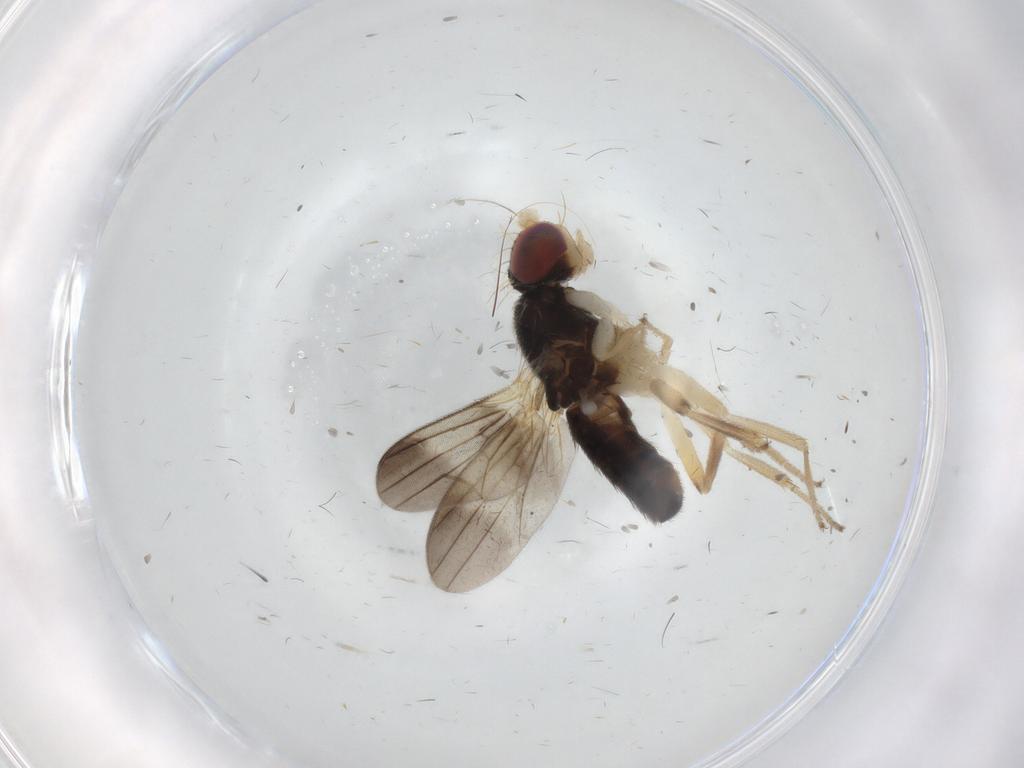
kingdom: Animalia
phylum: Arthropoda
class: Insecta
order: Diptera
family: Clusiidae
